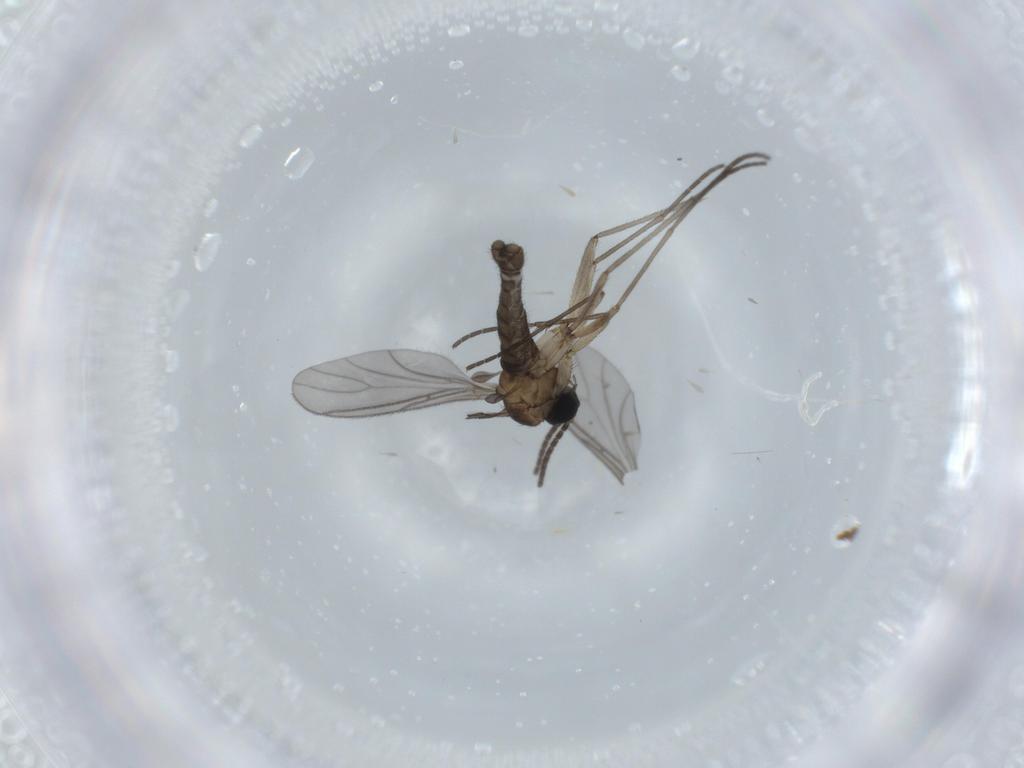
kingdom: Animalia
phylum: Arthropoda
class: Insecta
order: Diptera
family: Sciaridae
